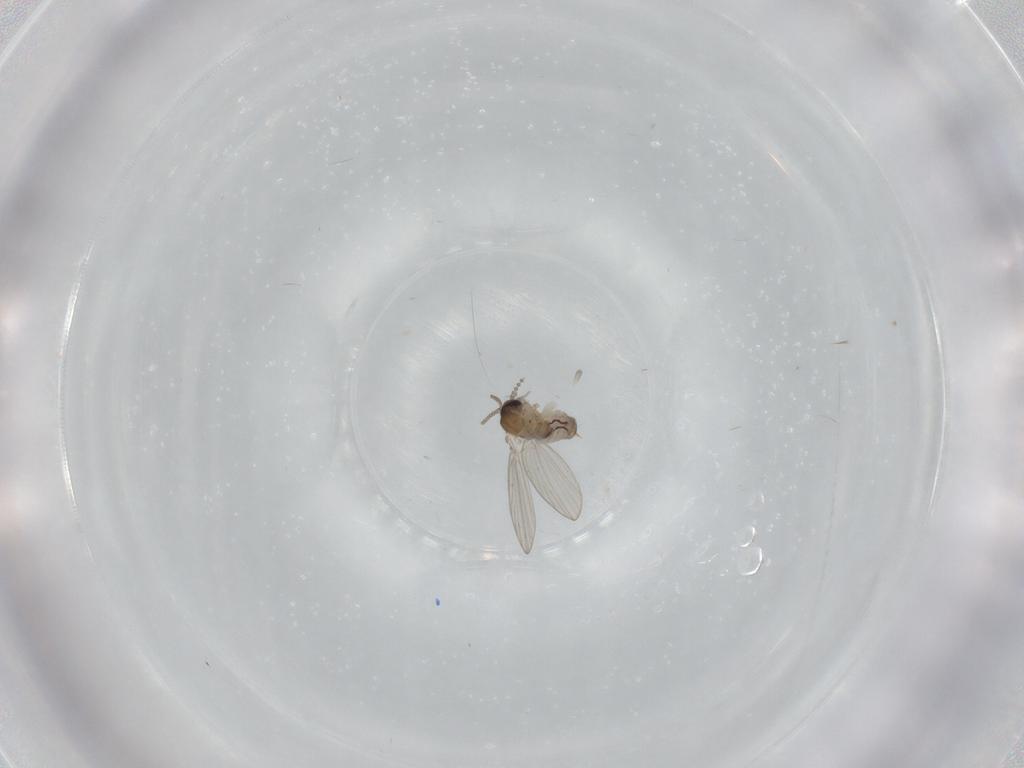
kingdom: Animalia
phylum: Arthropoda
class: Insecta
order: Diptera
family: Psychodidae
